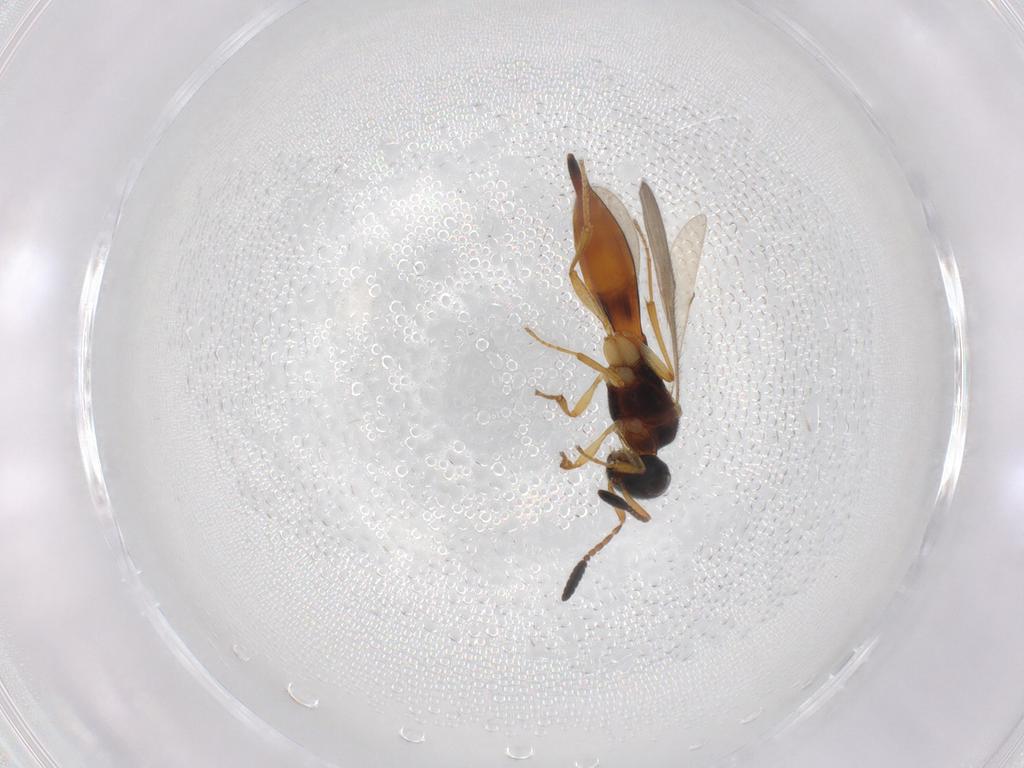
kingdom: Animalia
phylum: Arthropoda
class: Insecta
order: Hymenoptera
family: Scelionidae
